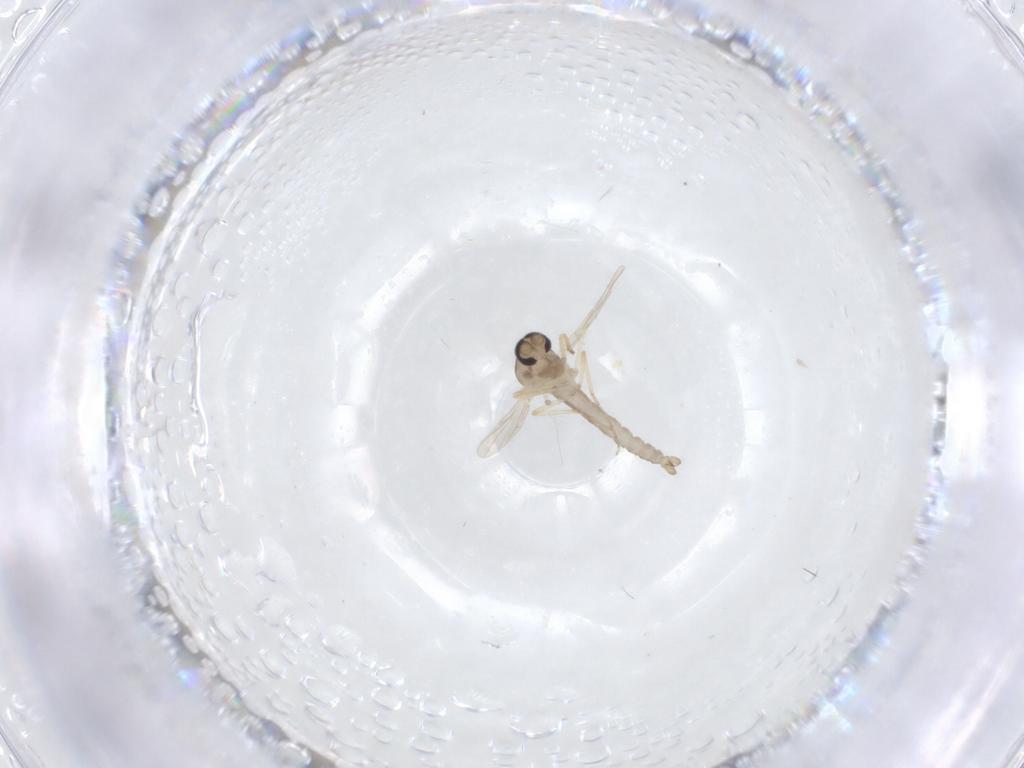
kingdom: Animalia
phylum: Arthropoda
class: Insecta
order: Diptera
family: Ceratopogonidae
